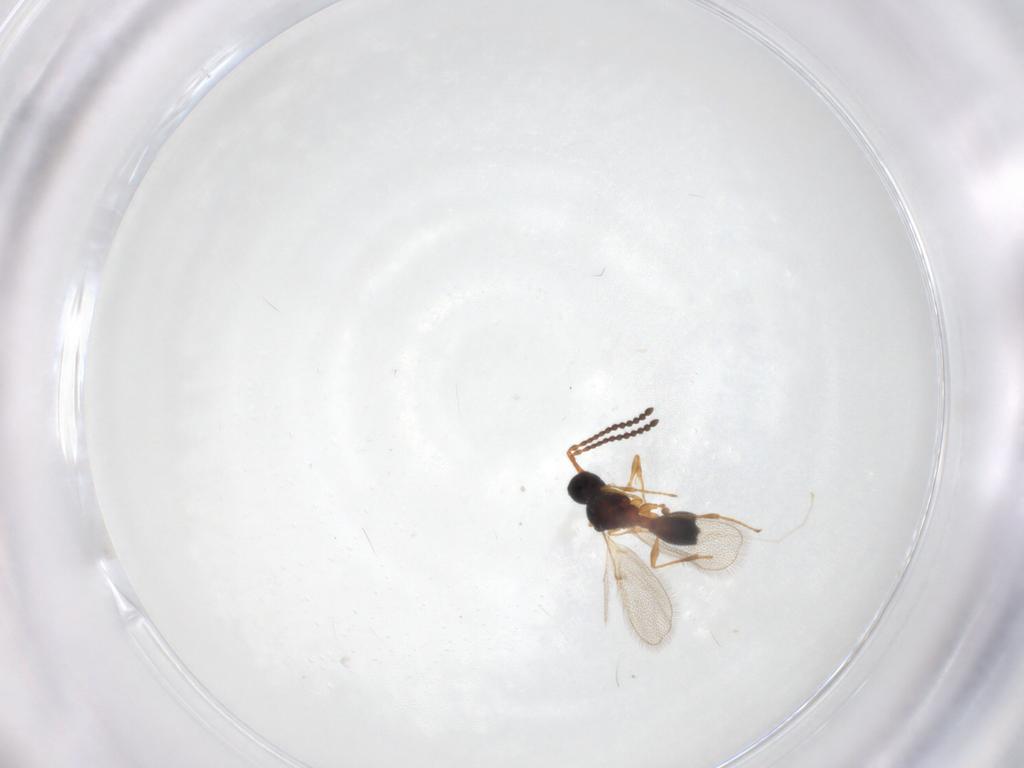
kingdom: Animalia
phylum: Arthropoda
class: Insecta
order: Hymenoptera
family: Diapriidae
